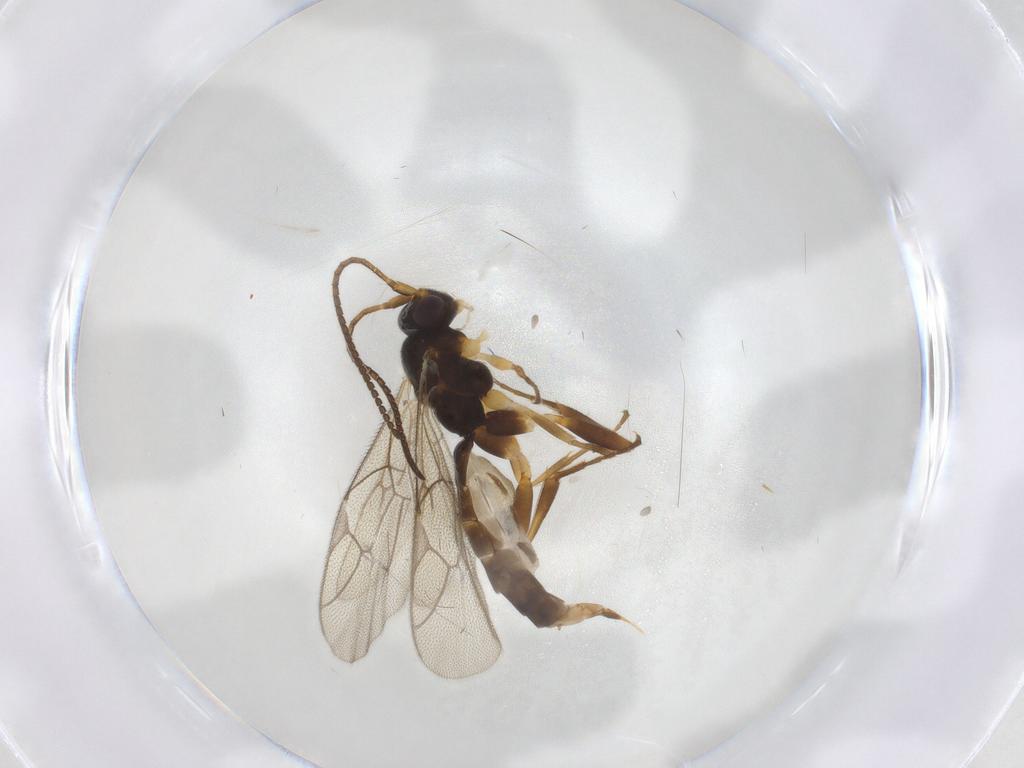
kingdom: Animalia
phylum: Arthropoda
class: Insecta
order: Hymenoptera
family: Ichneumonidae
